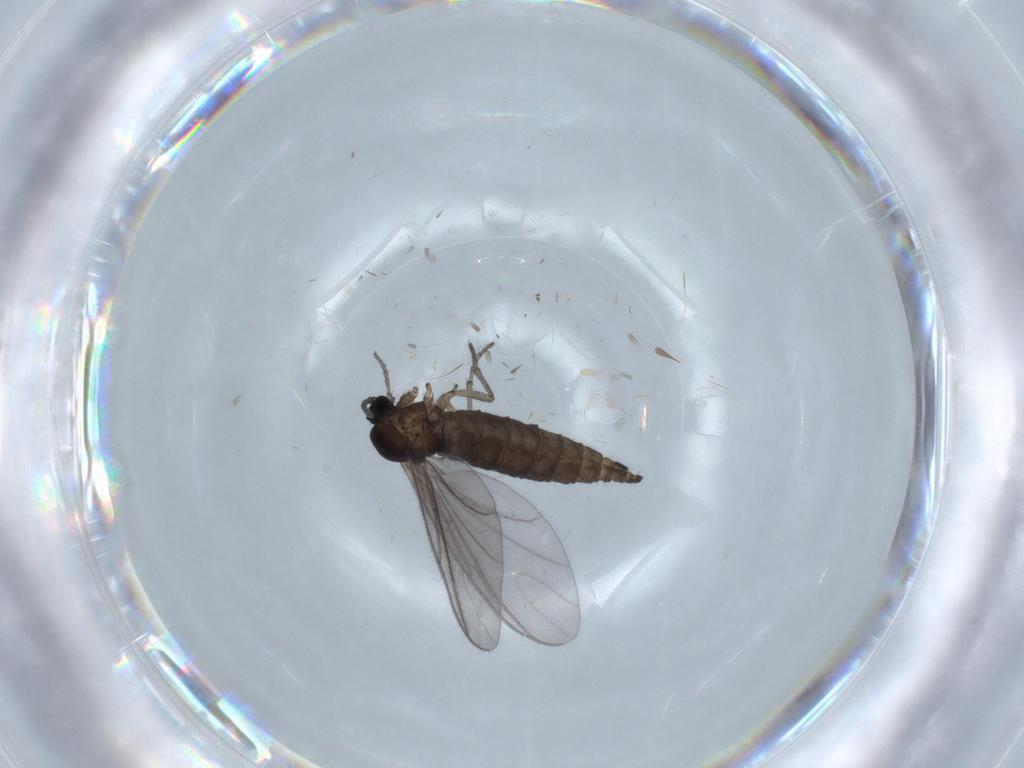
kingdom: Animalia
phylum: Arthropoda
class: Insecta
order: Diptera
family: Sciaridae
